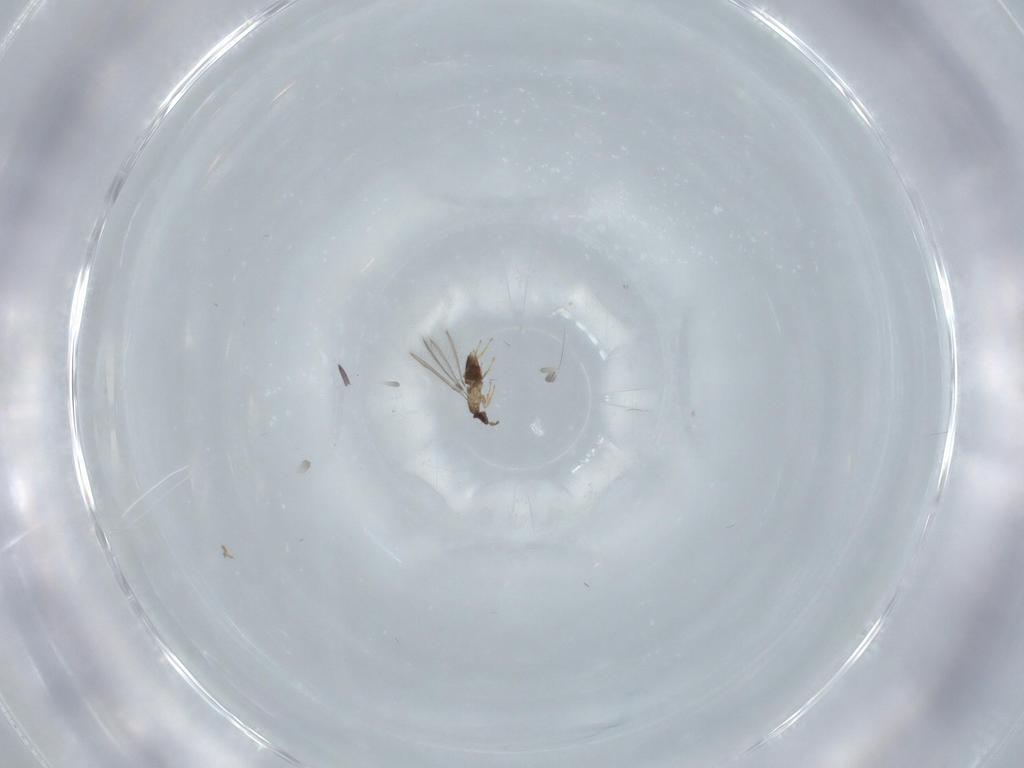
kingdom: Animalia
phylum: Arthropoda
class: Insecta
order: Hymenoptera
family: Mymaridae
